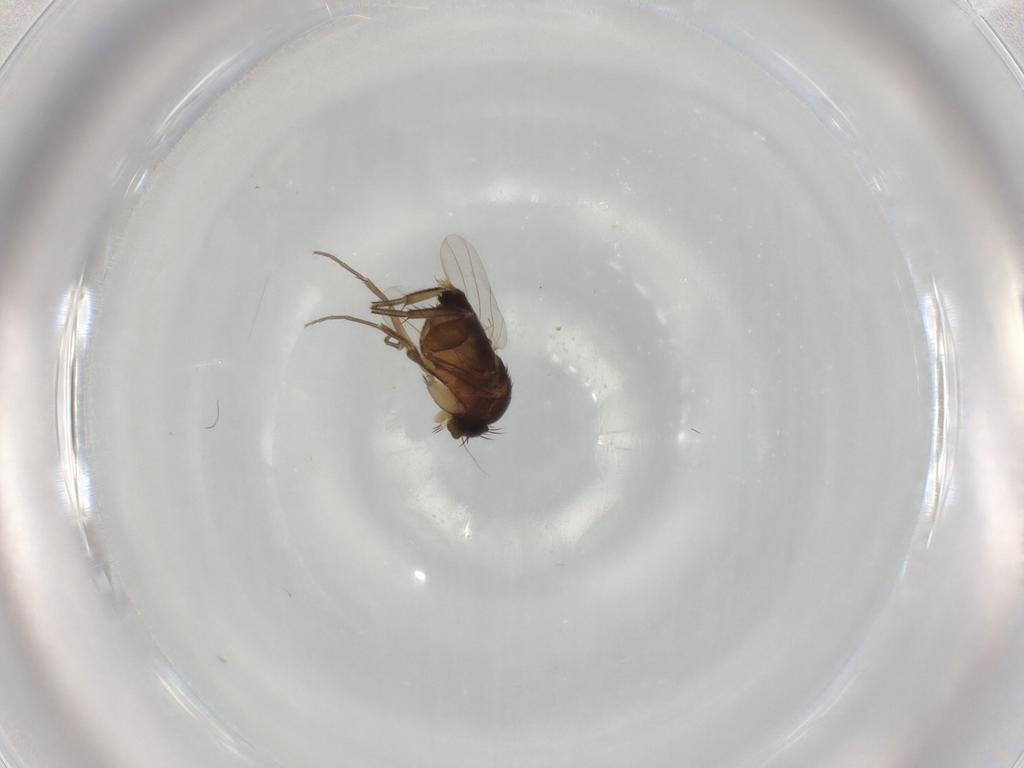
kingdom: Animalia
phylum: Arthropoda
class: Insecta
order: Diptera
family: Phoridae
